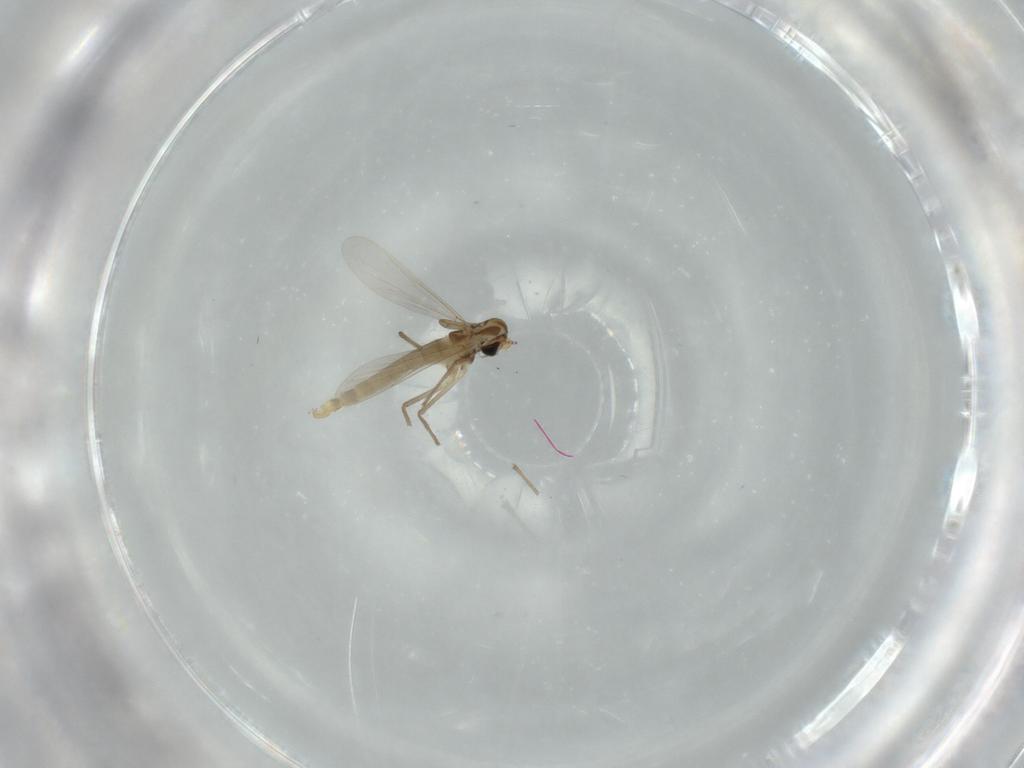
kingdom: Animalia
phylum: Arthropoda
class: Insecta
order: Diptera
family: Chironomidae
